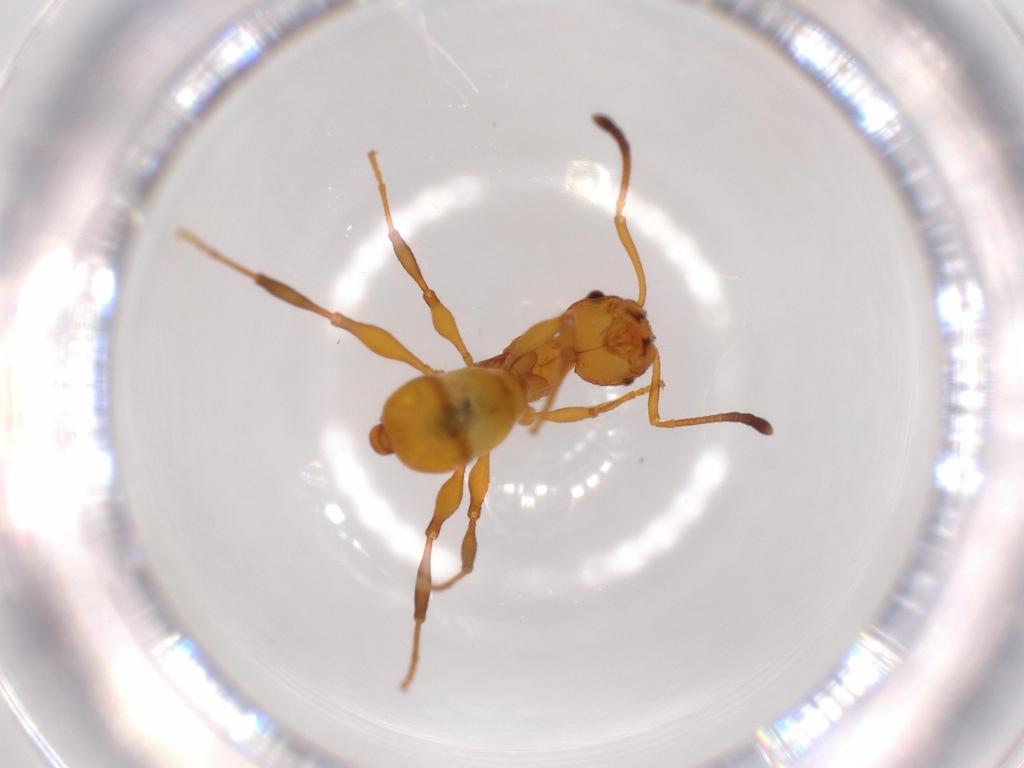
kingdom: Animalia
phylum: Arthropoda
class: Insecta
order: Hymenoptera
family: Formicidae
